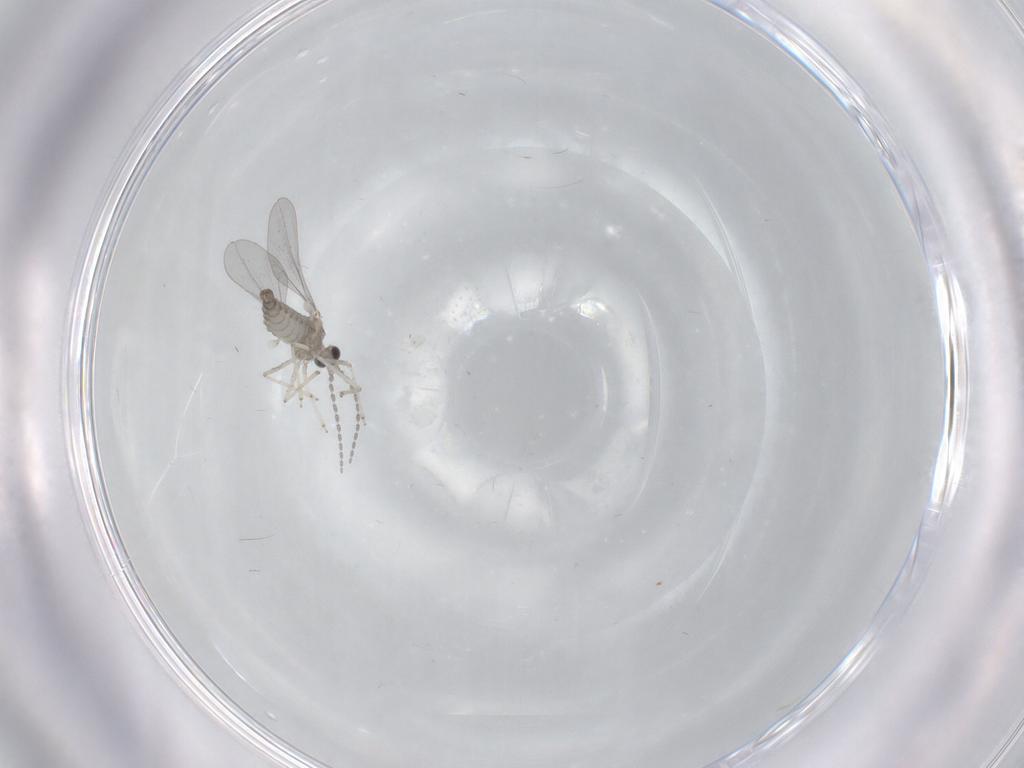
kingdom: Animalia
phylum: Arthropoda
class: Insecta
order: Diptera
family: Cecidomyiidae
